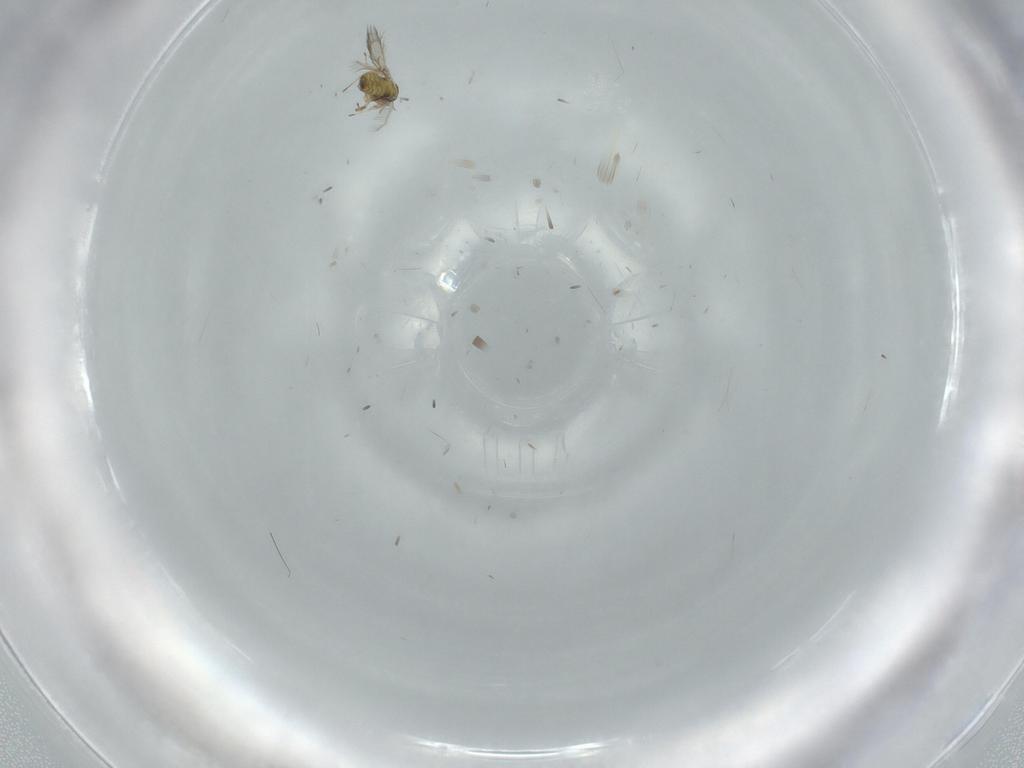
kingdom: Animalia
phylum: Arthropoda
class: Insecta
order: Hymenoptera
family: Trichogrammatidae
